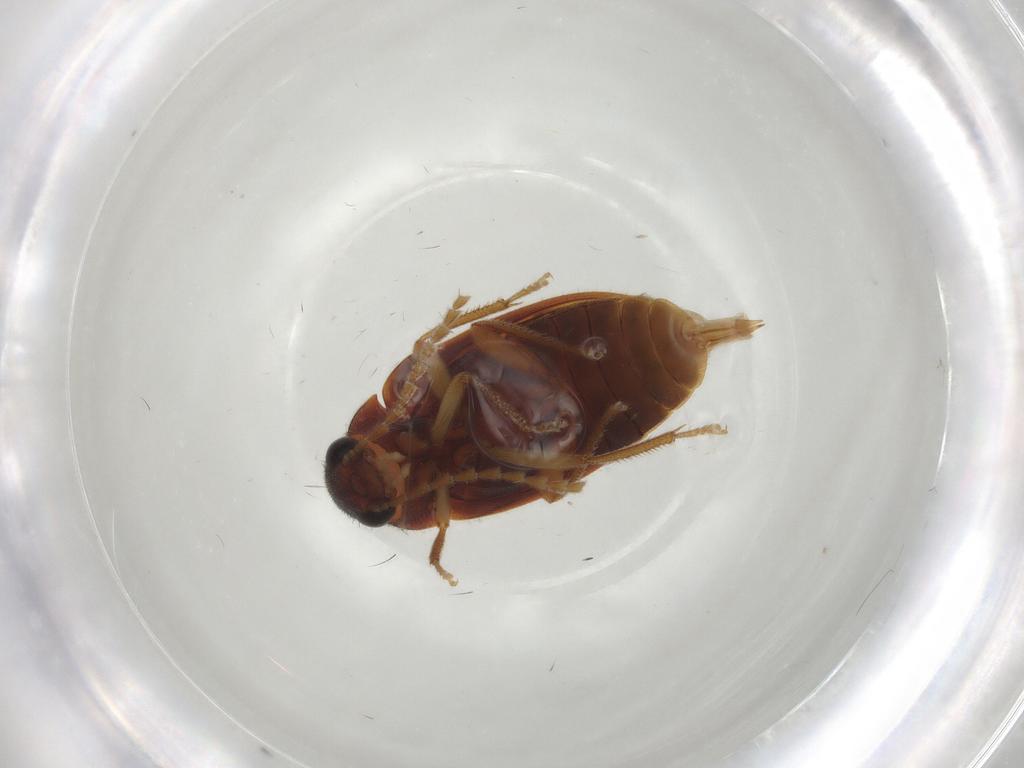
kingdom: Animalia
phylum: Arthropoda
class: Insecta
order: Coleoptera
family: Ptilodactylidae
